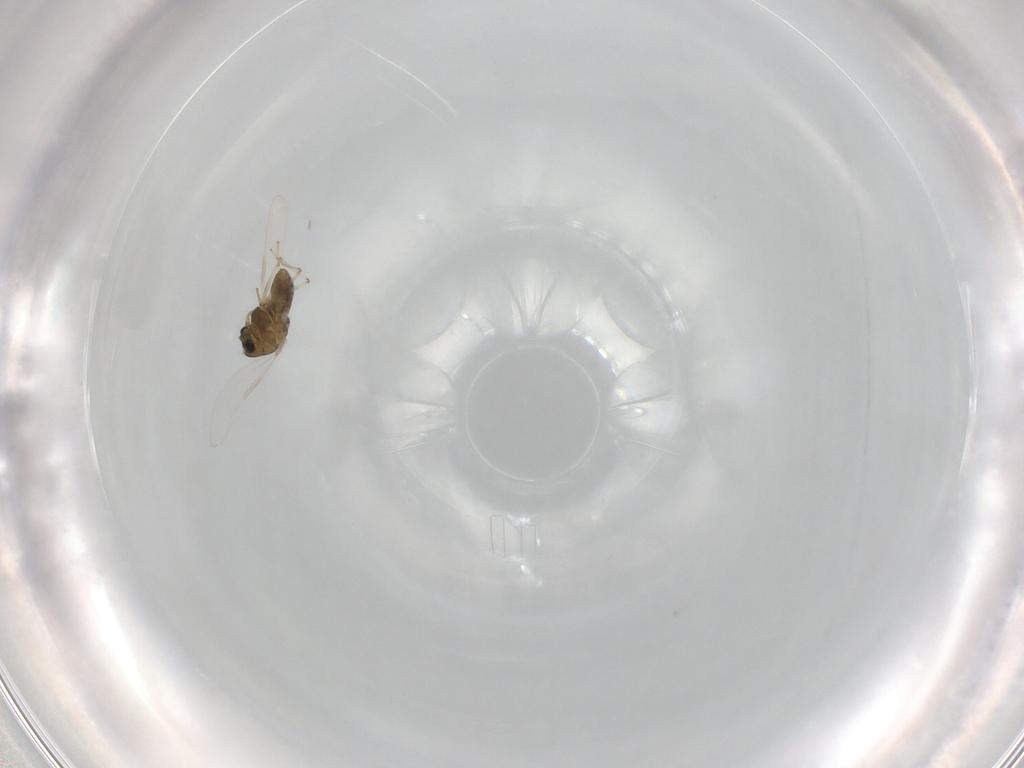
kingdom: Animalia
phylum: Arthropoda
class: Insecta
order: Diptera
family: Chironomidae
